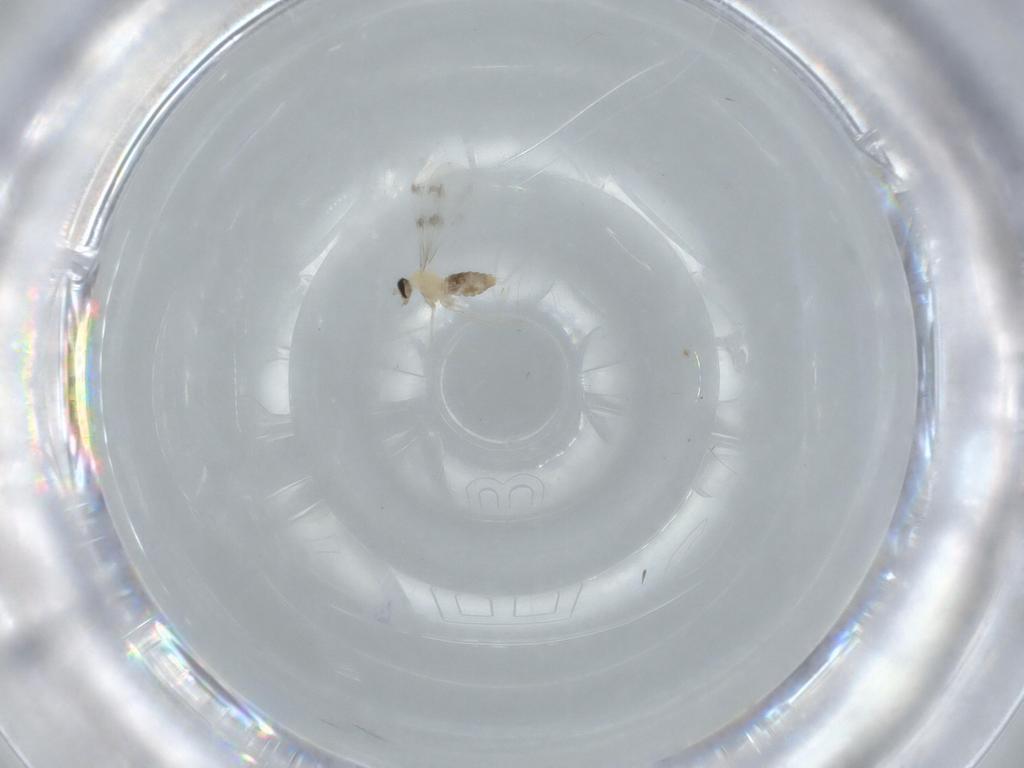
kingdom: Animalia
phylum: Arthropoda
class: Insecta
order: Diptera
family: Cecidomyiidae
